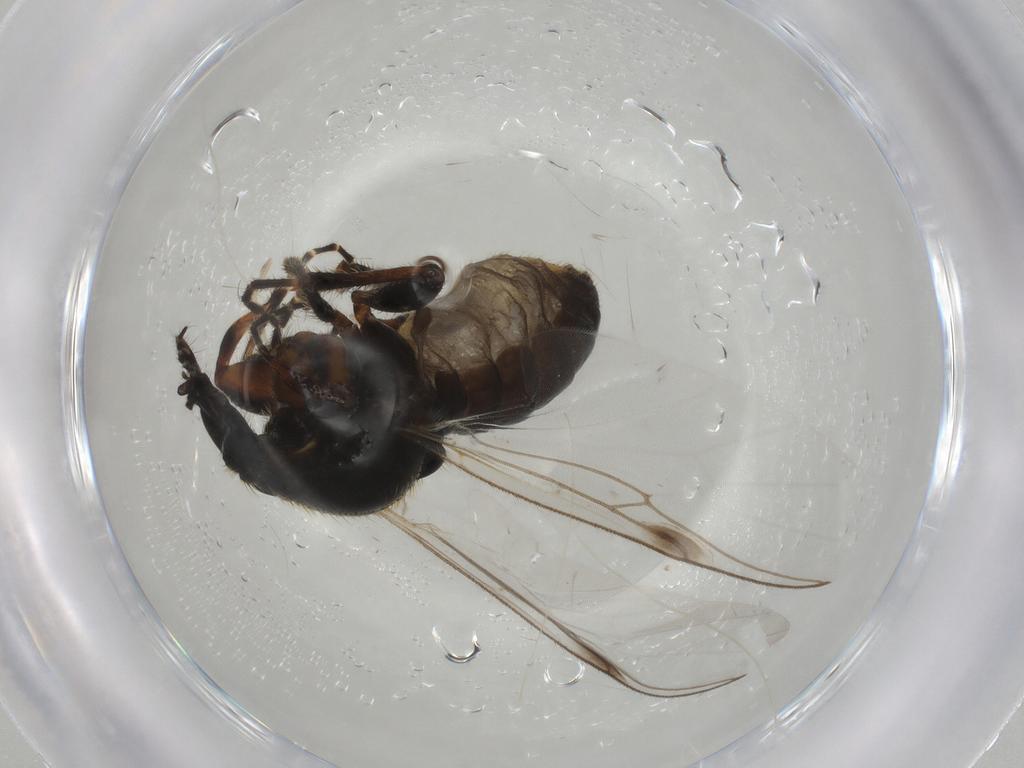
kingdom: Animalia
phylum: Arthropoda
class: Insecta
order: Diptera
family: Bibionidae
